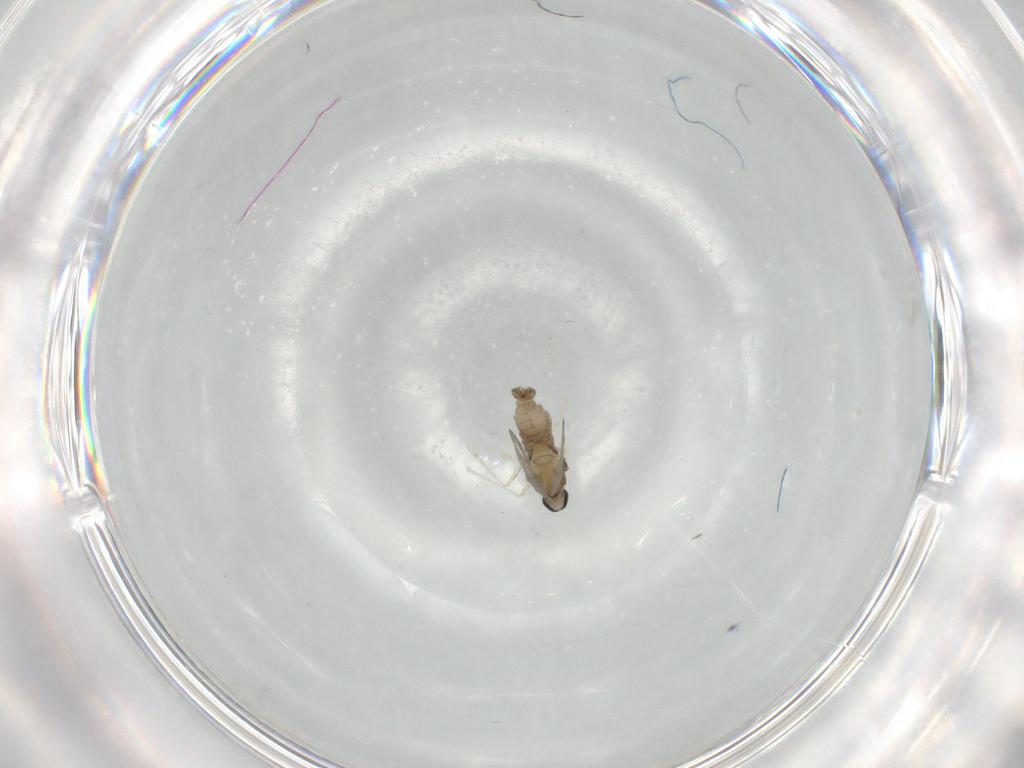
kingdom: Animalia
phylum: Arthropoda
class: Insecta
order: Diptera
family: Cecidomyiidae
